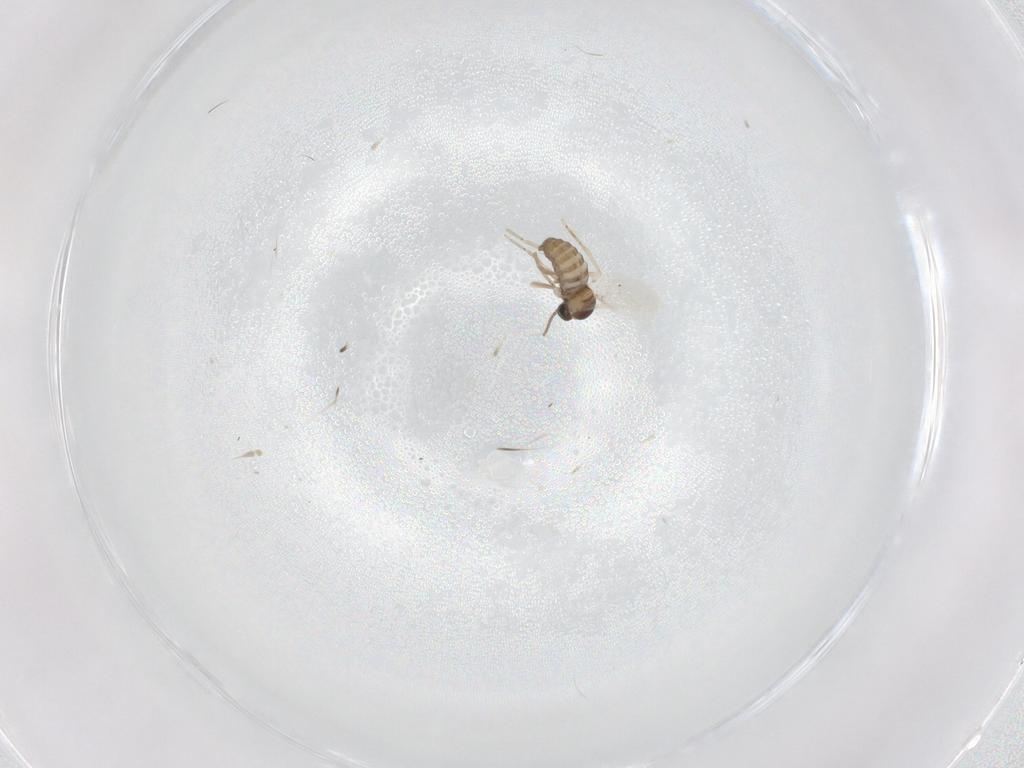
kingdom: Animalia
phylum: Arthropoda
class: Insecta
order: Diptera
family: Cecidomyiidae
